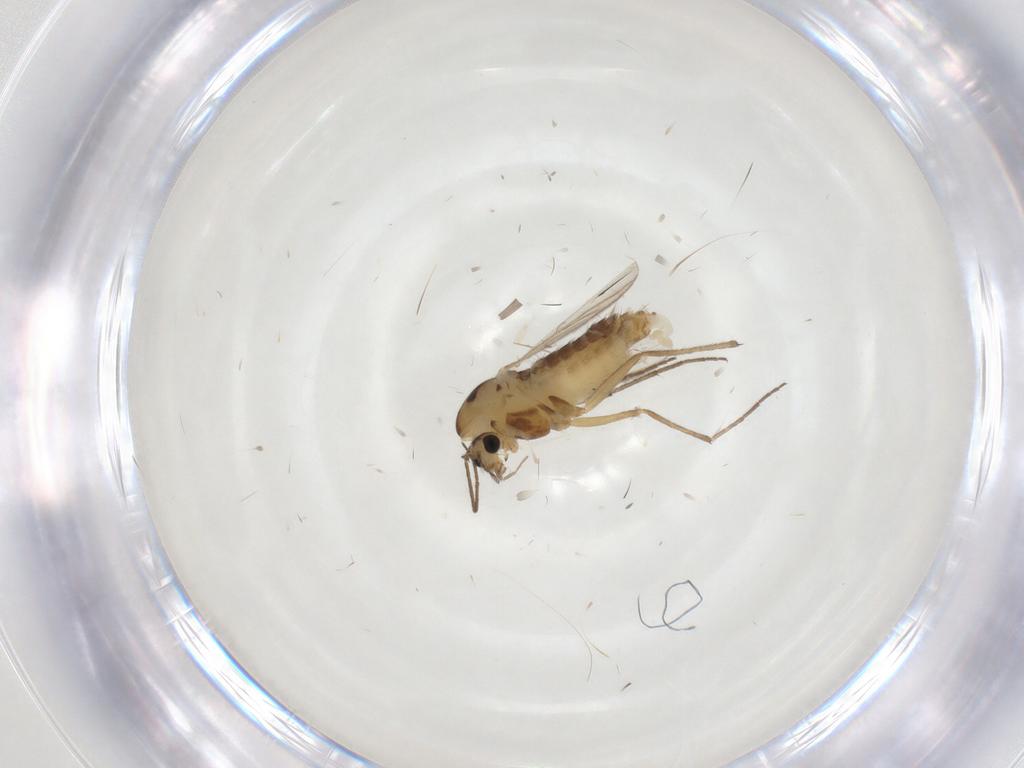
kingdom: Animalia
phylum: Arthropoda
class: Insecta
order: Diptera
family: Chironomidae
